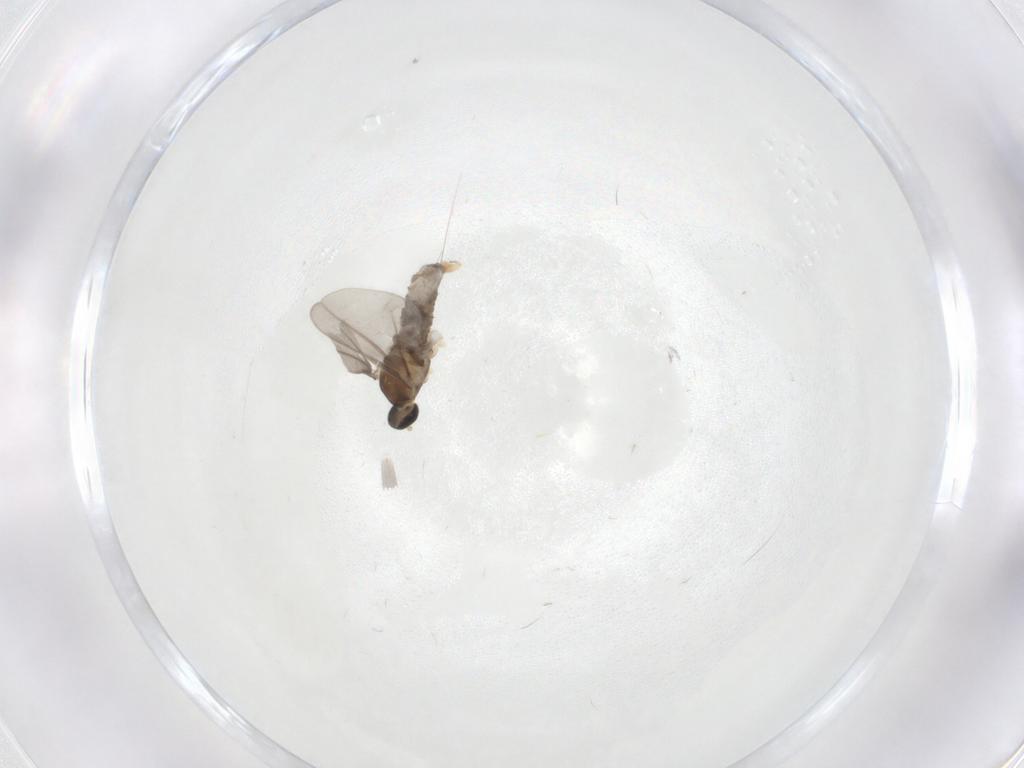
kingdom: Animalia
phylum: Arthropoda
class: Insecta
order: Diptera
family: Cecidomyiidae
